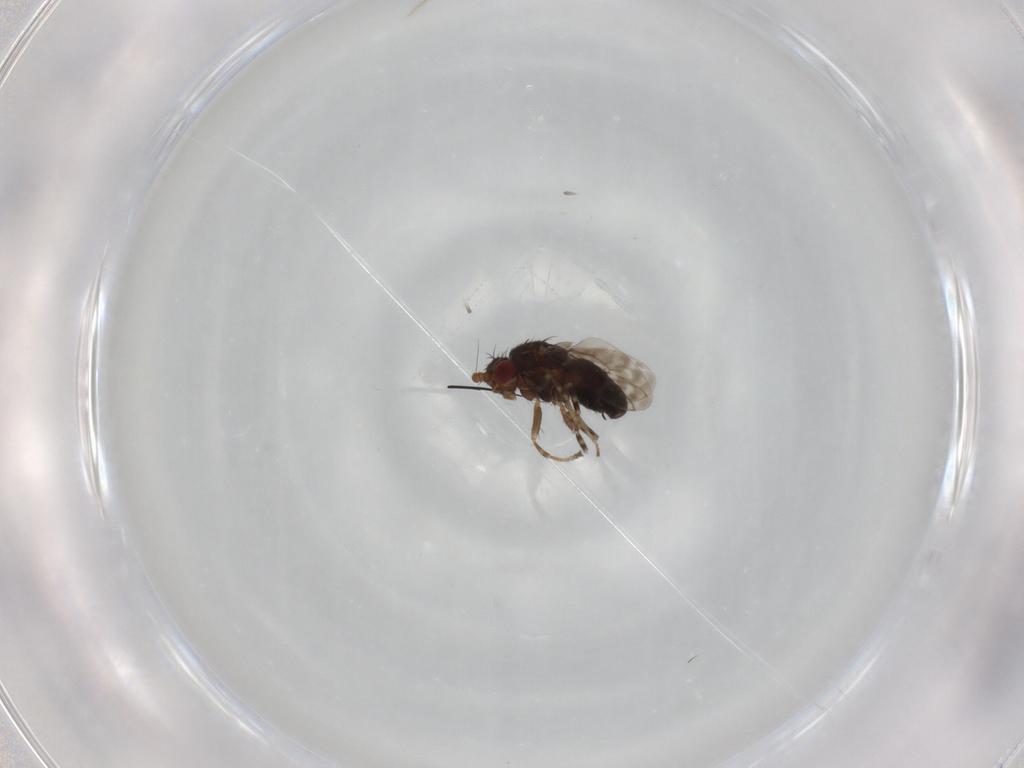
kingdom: Animalia
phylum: Arthropoda
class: Insecta
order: Diptera
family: Sphaeroceridae
